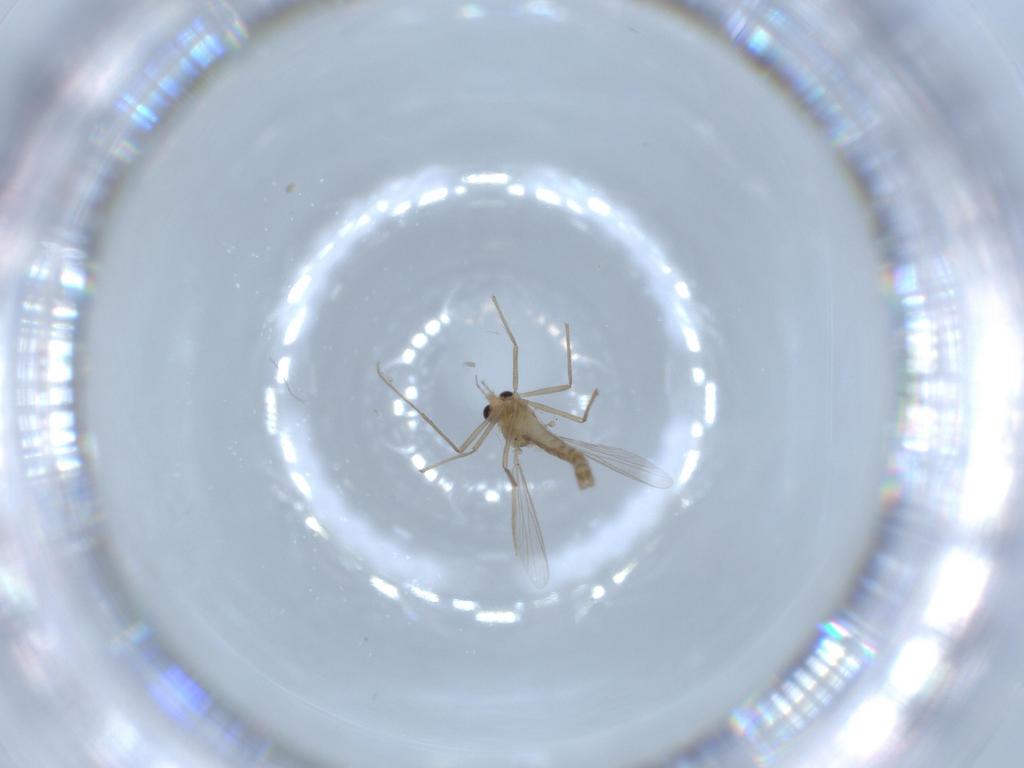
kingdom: Animalia
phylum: Arthropoda
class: Insecta
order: Diptera
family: Chironomidae
